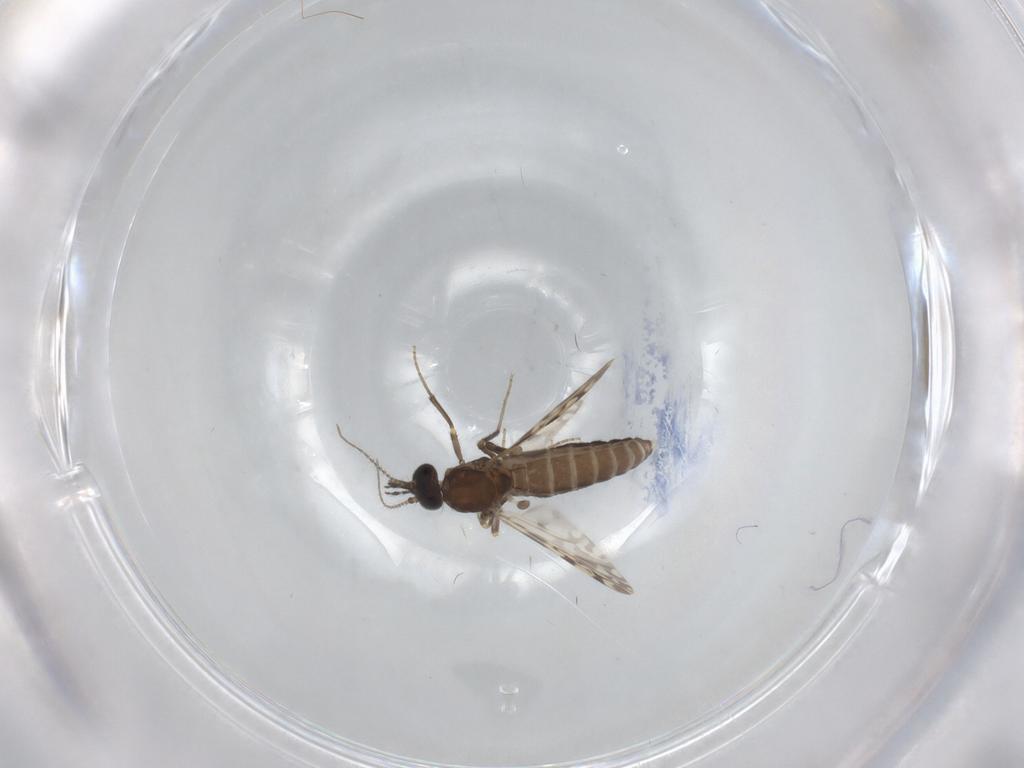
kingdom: Animalia
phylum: Arthropoda
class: Insecta
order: Diptera
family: Ceratopogonidae
